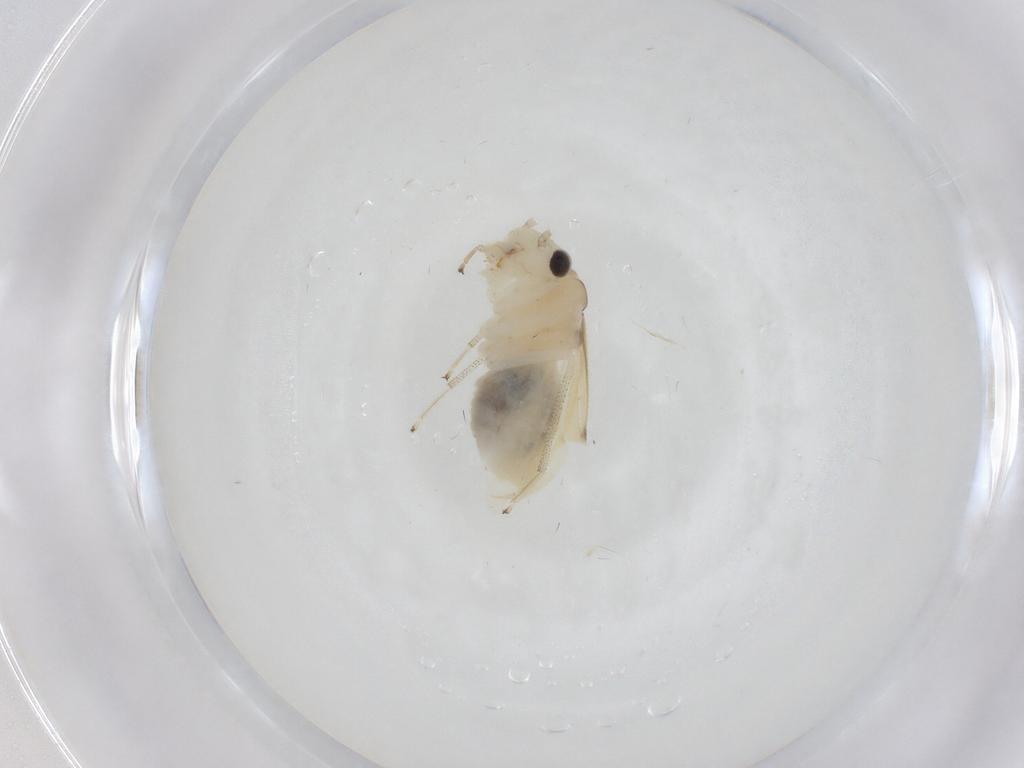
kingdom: Animalia
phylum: Arthropoda
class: Insecta
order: Psocodea
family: Caeciliusidae
